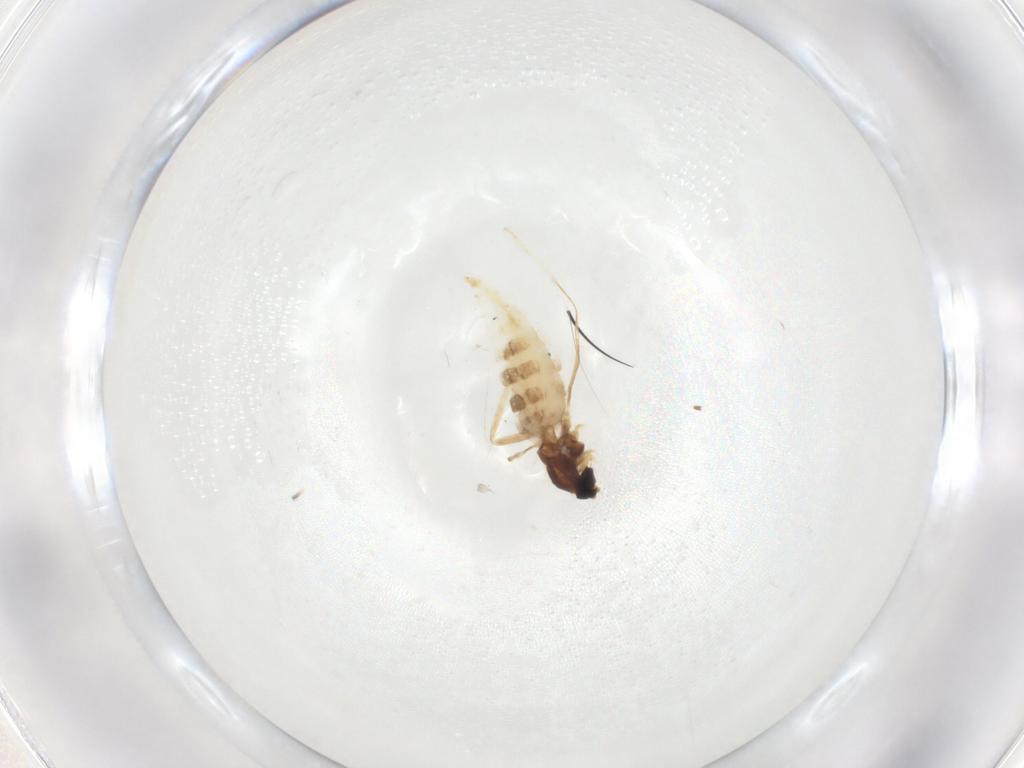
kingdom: Animalia
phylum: Arthropoda
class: Insecta
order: Diptera
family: Cecidomyiidae
